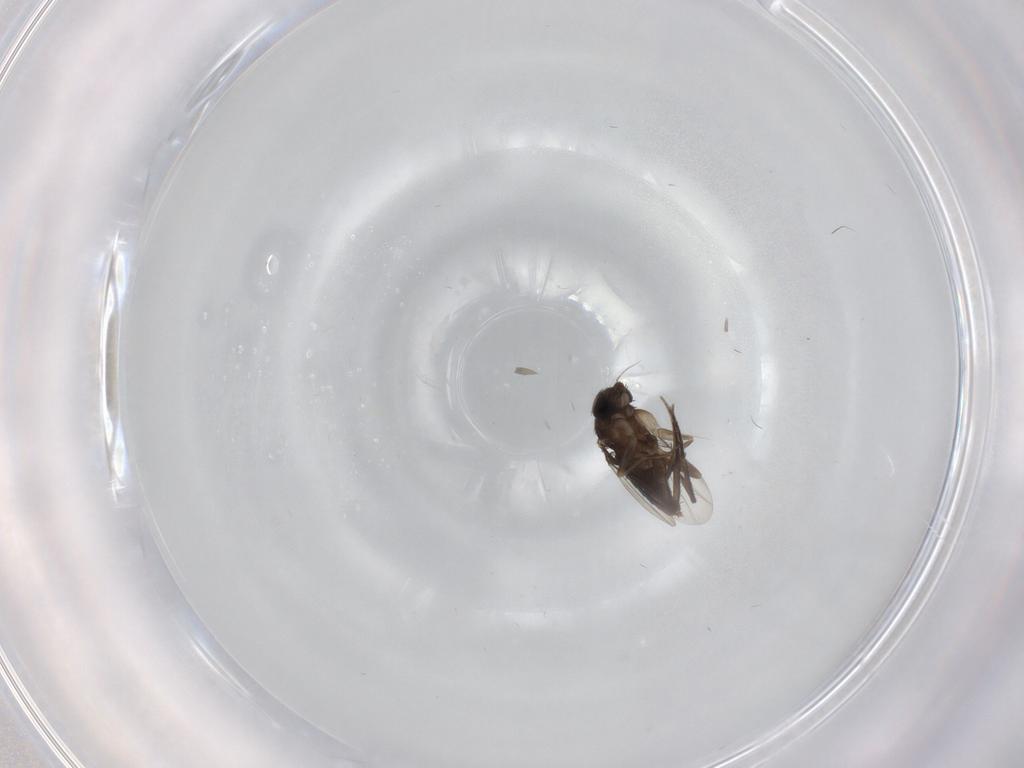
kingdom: Animalia
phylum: Arthropoda
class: Insecta
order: Diptera
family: Phoridae
